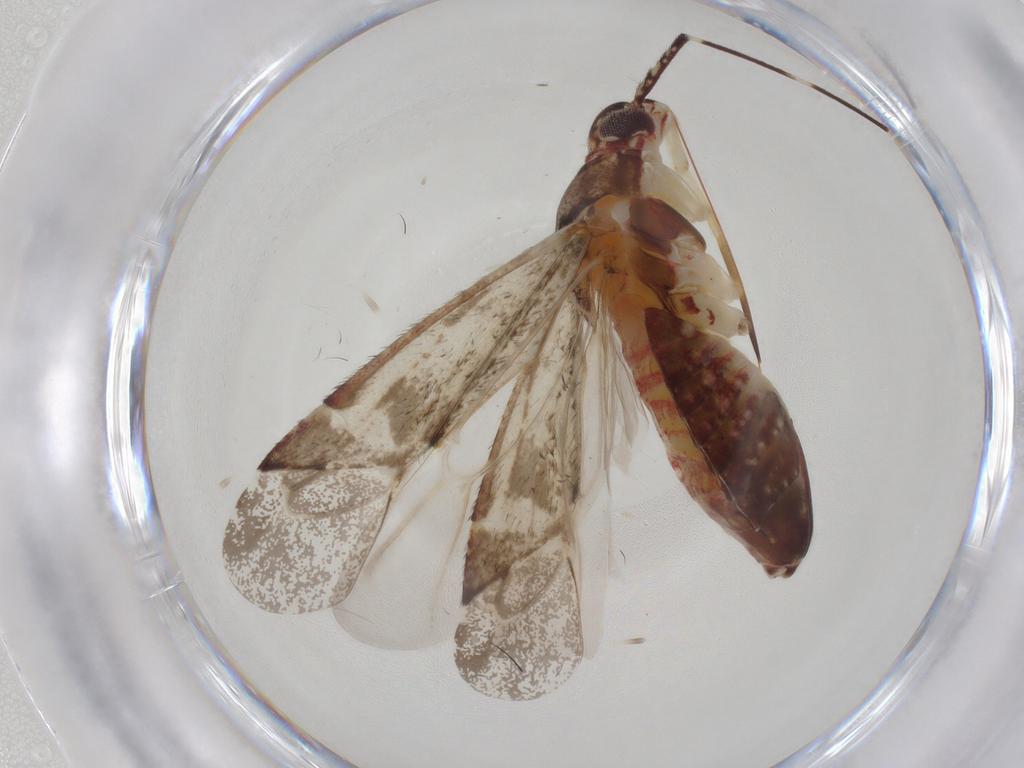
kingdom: Animalia
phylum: Arthropoda
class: Insecta
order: Hemiptera
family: Miridae
